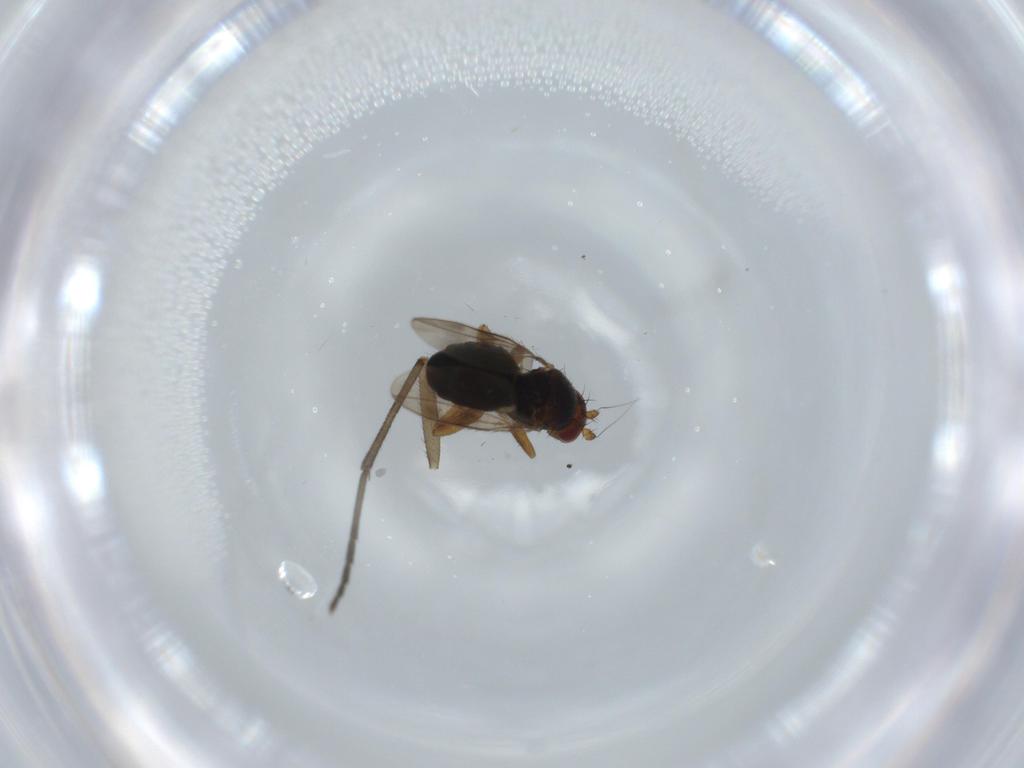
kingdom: Animalia
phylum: Arthropoda
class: Insecta
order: Diptera
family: Sphaeroceridae
